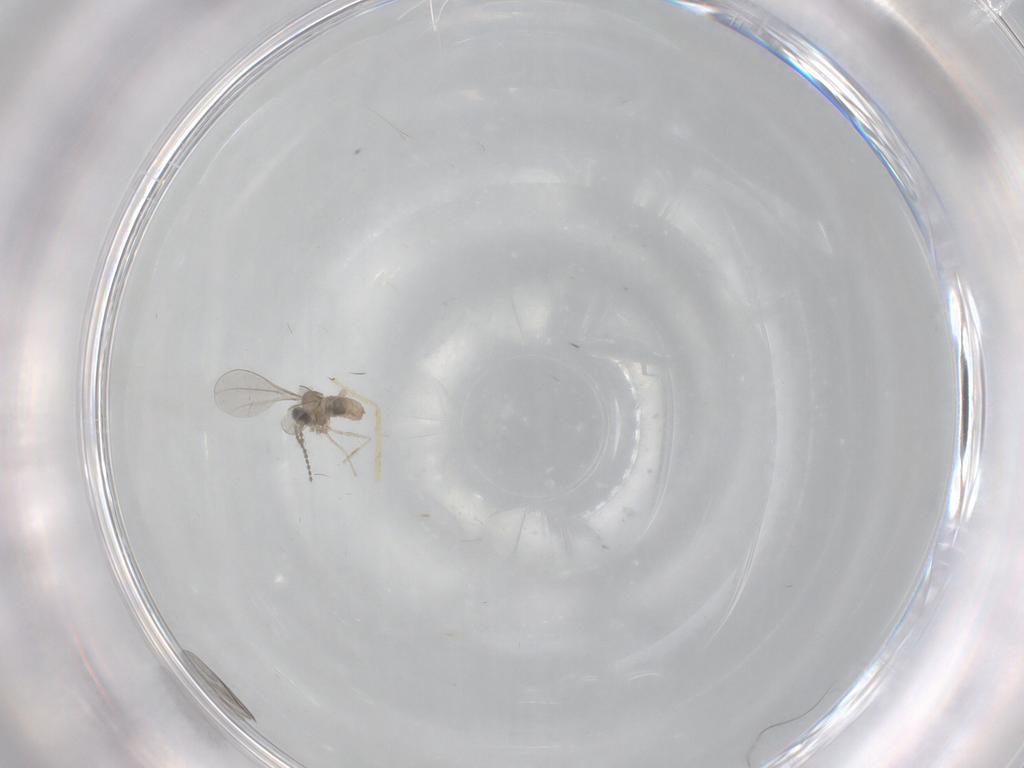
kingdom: Animalia
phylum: Arthropoda
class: Insecta
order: Diptera
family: Chironomidae
